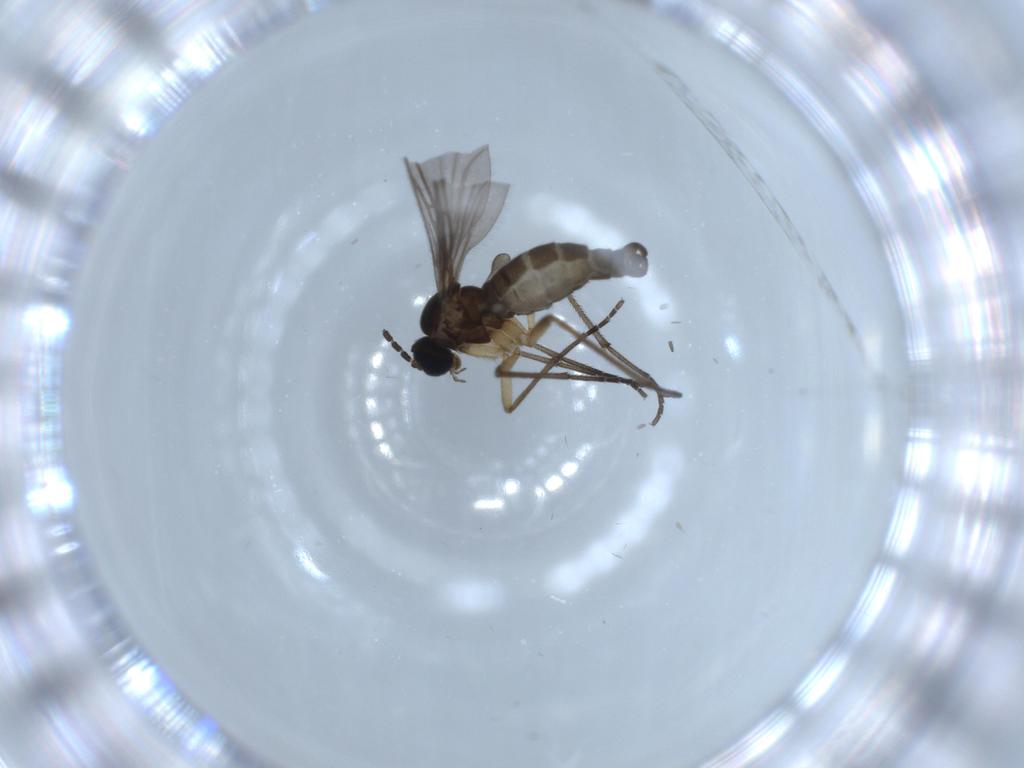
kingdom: Animalia
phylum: Arthropoda
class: Insecta
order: Diptera
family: Sciaridae
